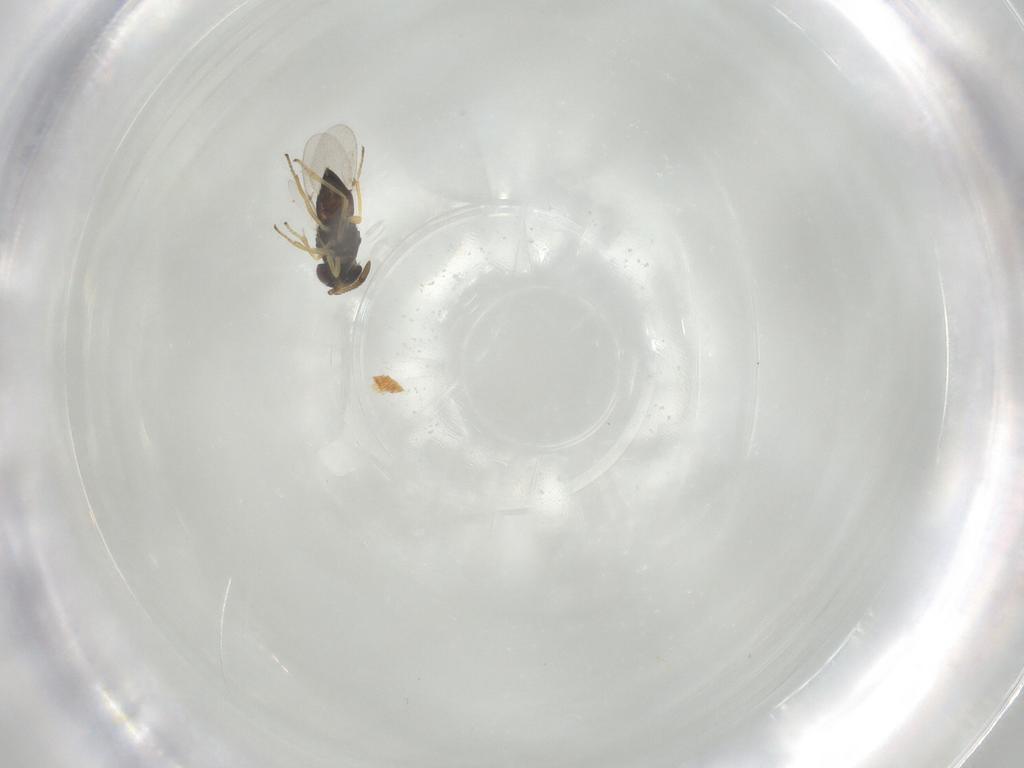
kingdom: Animalia
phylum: Arthropoda
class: Insecta
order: Hymenoptera
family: Encyrtidae
